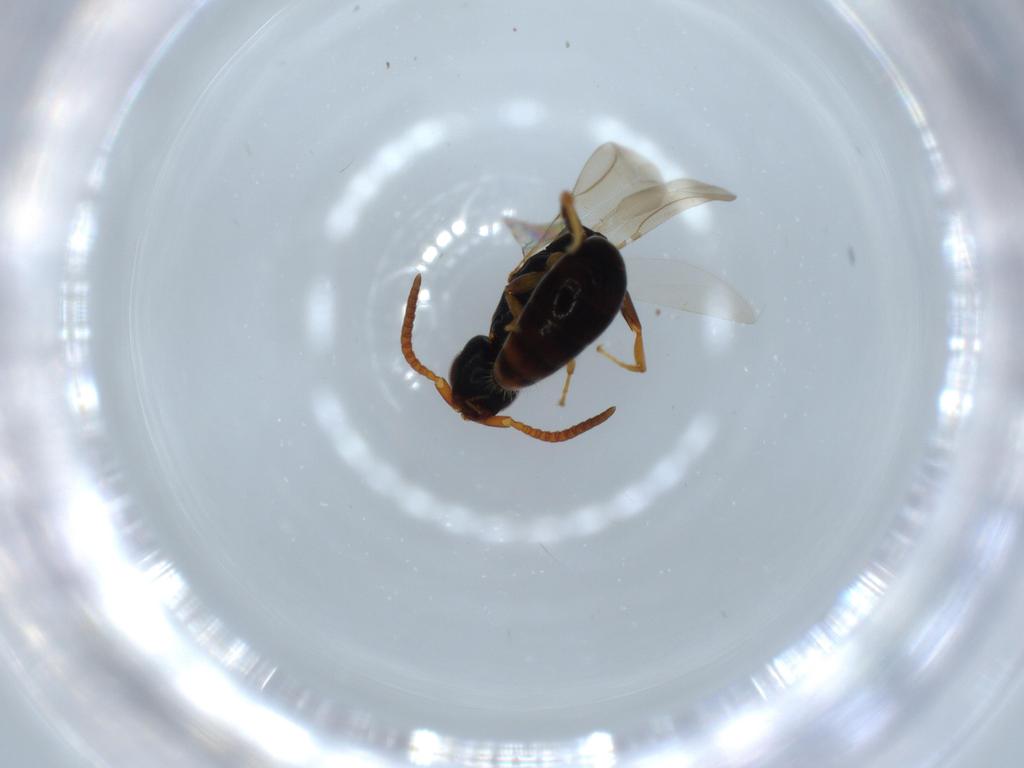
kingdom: Animalia
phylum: Arthropoda
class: Insecta
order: Hymenoptera
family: Bethylidae
